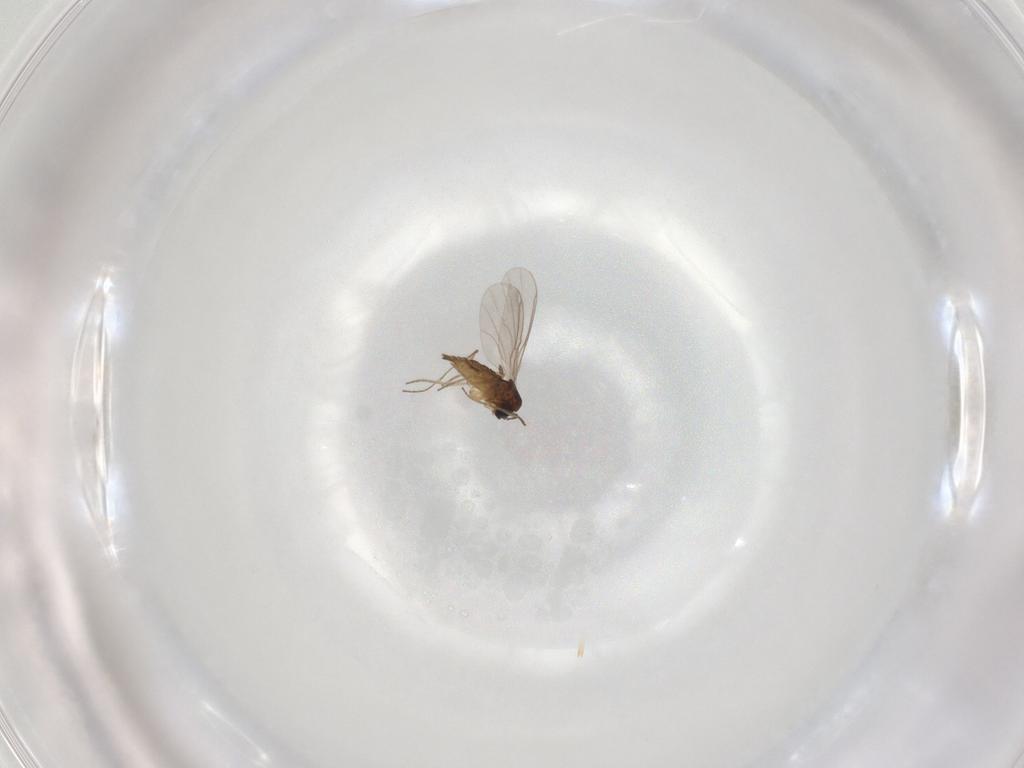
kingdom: Animalia
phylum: Arthropoda
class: Insecta
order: Diptera
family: Sciaridae
